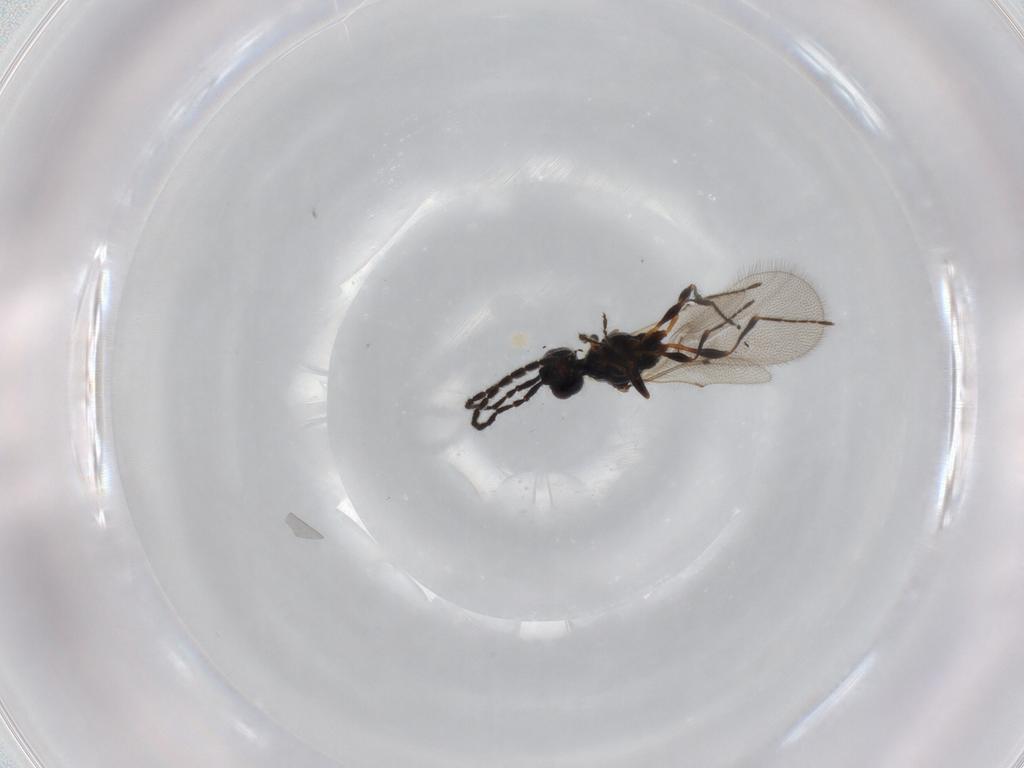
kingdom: Animalia
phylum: Arthropoda
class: Insecta
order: Hymenoptera
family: Diapriidae
